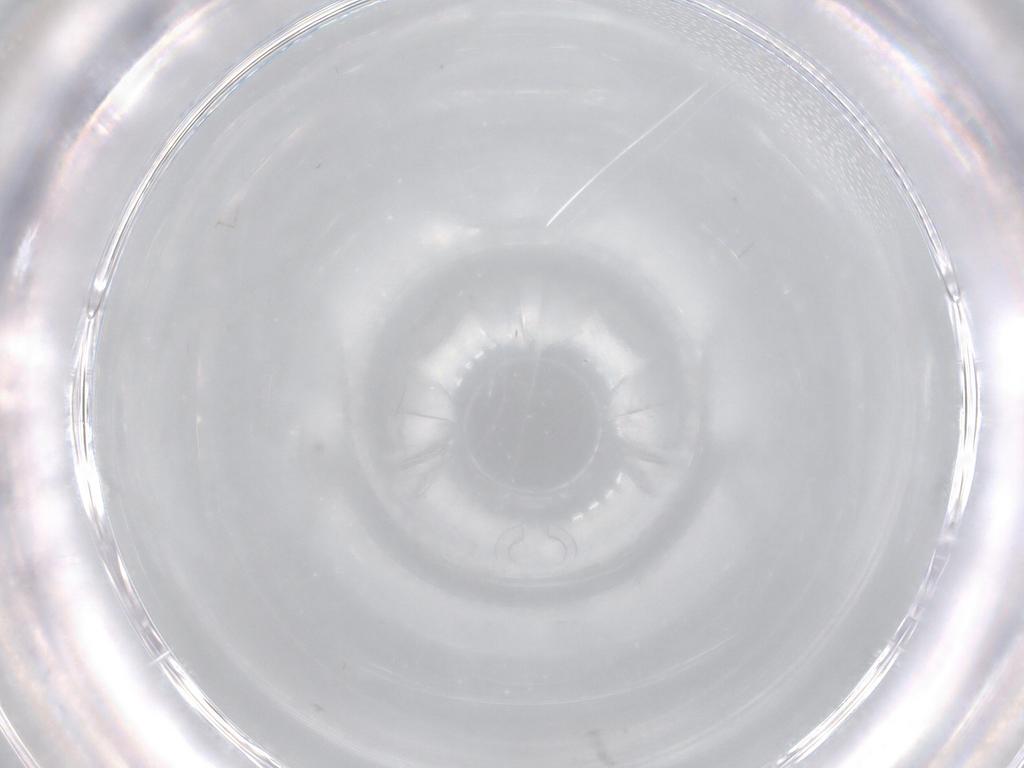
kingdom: Animalia
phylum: Arthropoda
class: Insecta
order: Diptera
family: Cecidomyiidae
